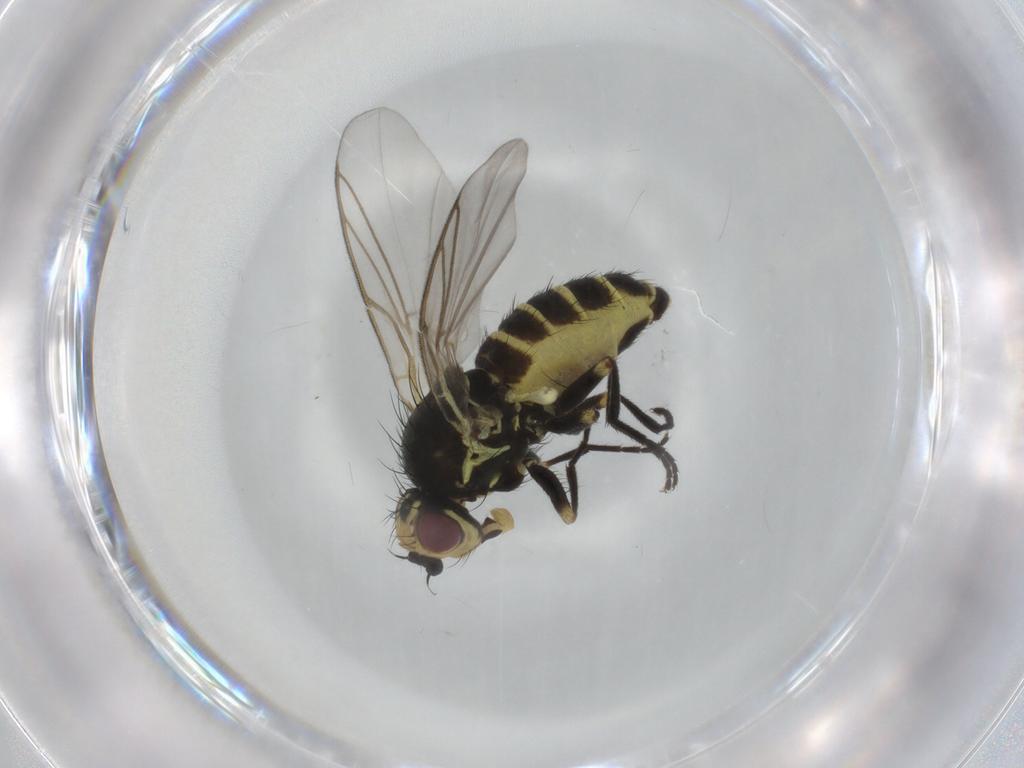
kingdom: Animalia
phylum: Arthropoda
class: Insecta
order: Diptera
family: Agromyzidae
